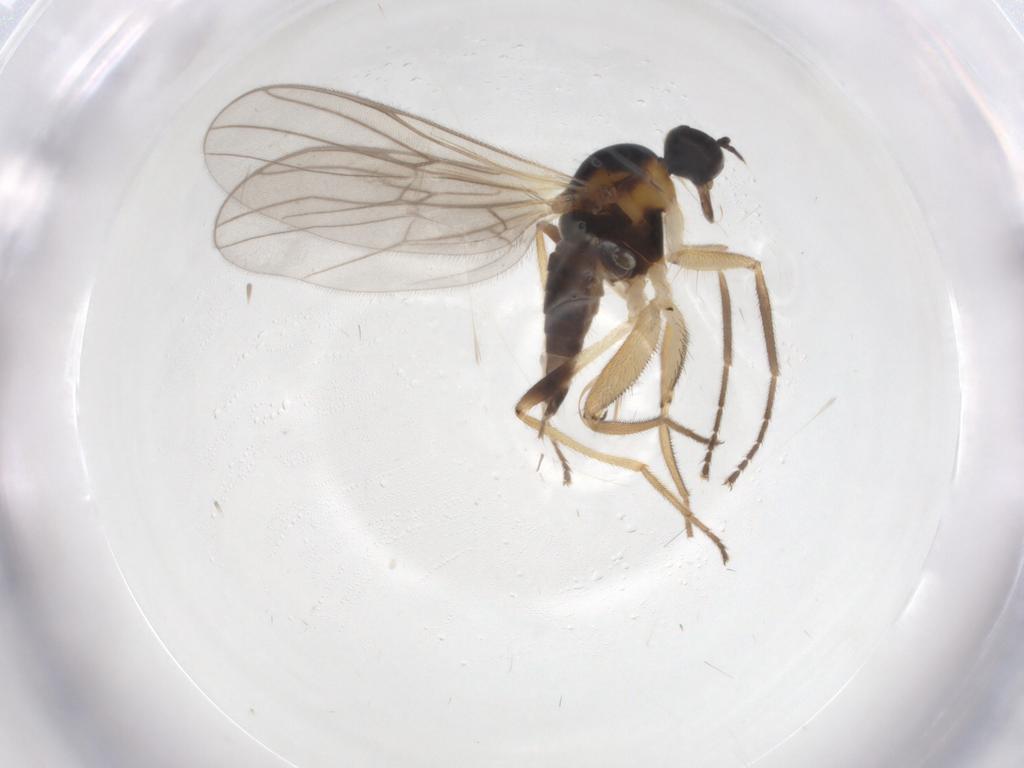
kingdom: Animalia
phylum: Arthropoda
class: Insecta
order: Diptera
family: Hybotidae
